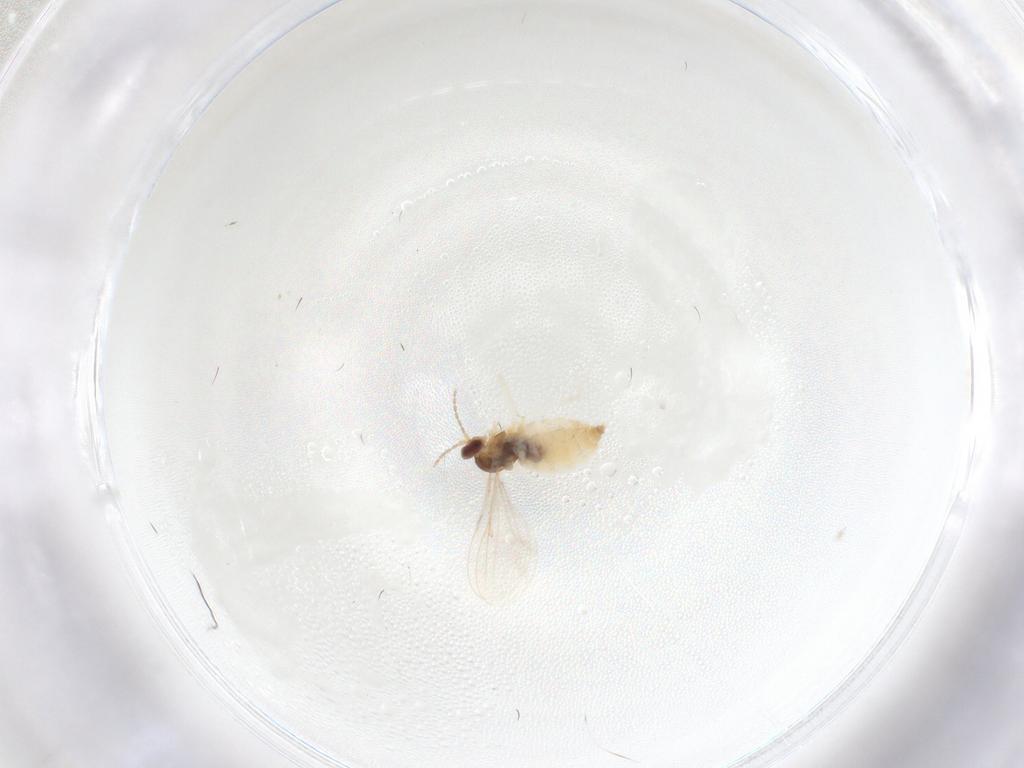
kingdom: Animalia
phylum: Arthropoda
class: Insecta
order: Diptera
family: Cecidomyiidae
